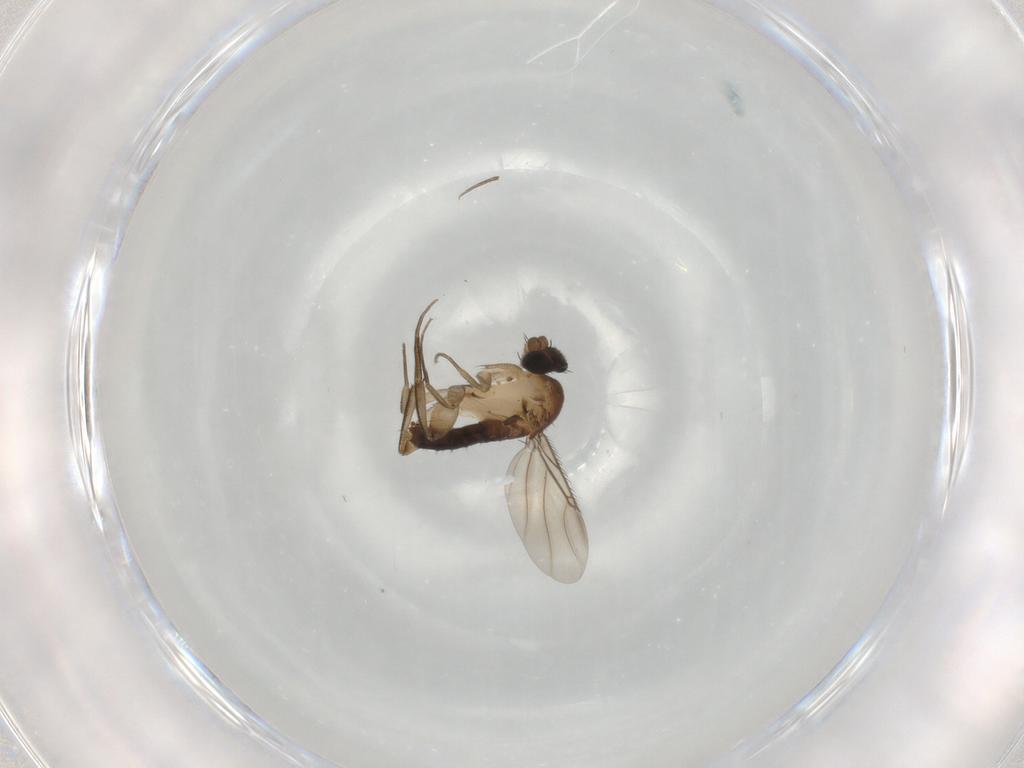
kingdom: Animalia
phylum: Arthropoda
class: Insecta
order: Diptera
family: Phoridae
